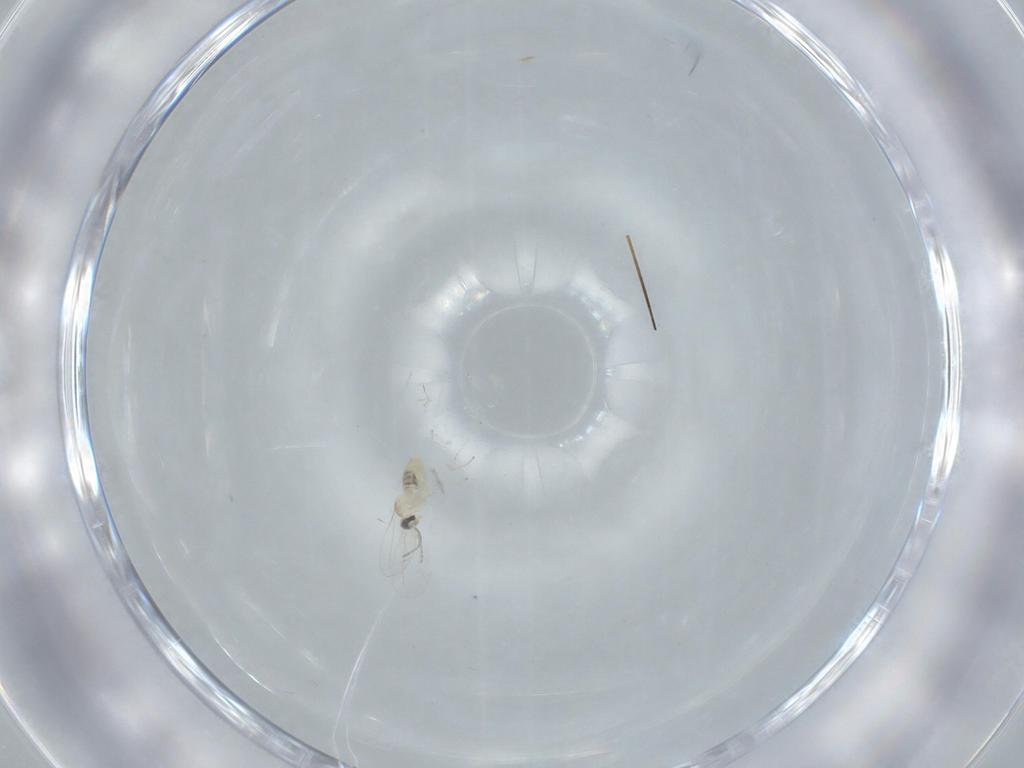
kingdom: Animalia
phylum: Arthropoda
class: Insecta
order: Diptera
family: Cecidomyiidae
